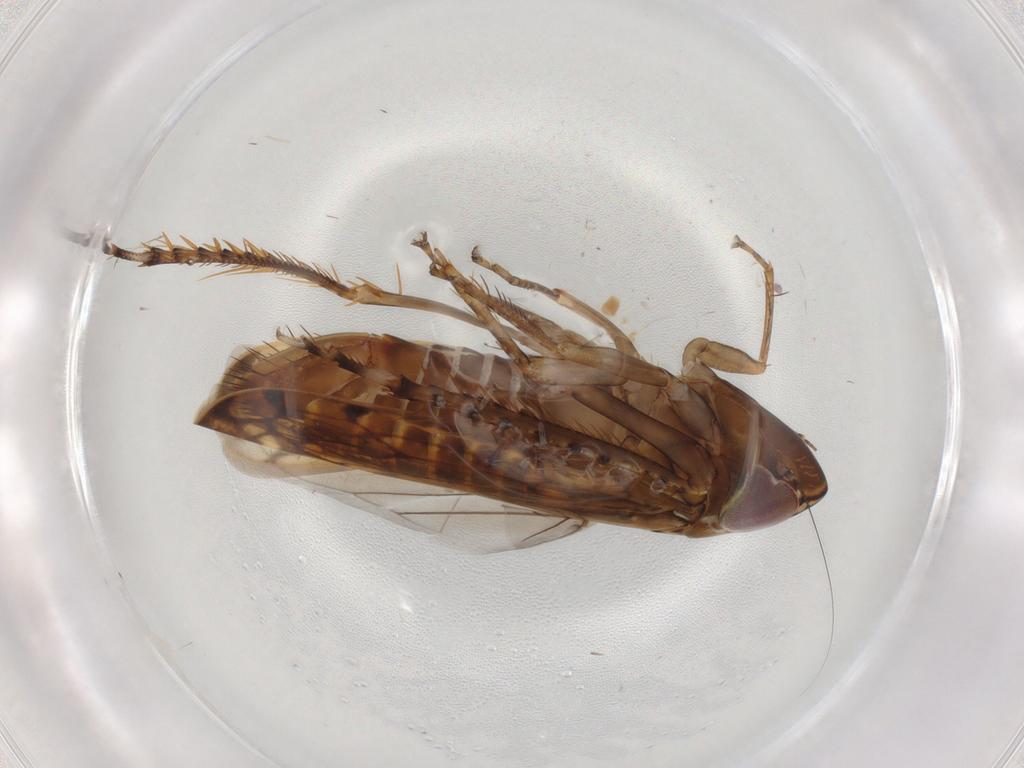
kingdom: Animalia
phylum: Arthropoda
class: Insecta
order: Hemiptera
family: Cicadellidae
